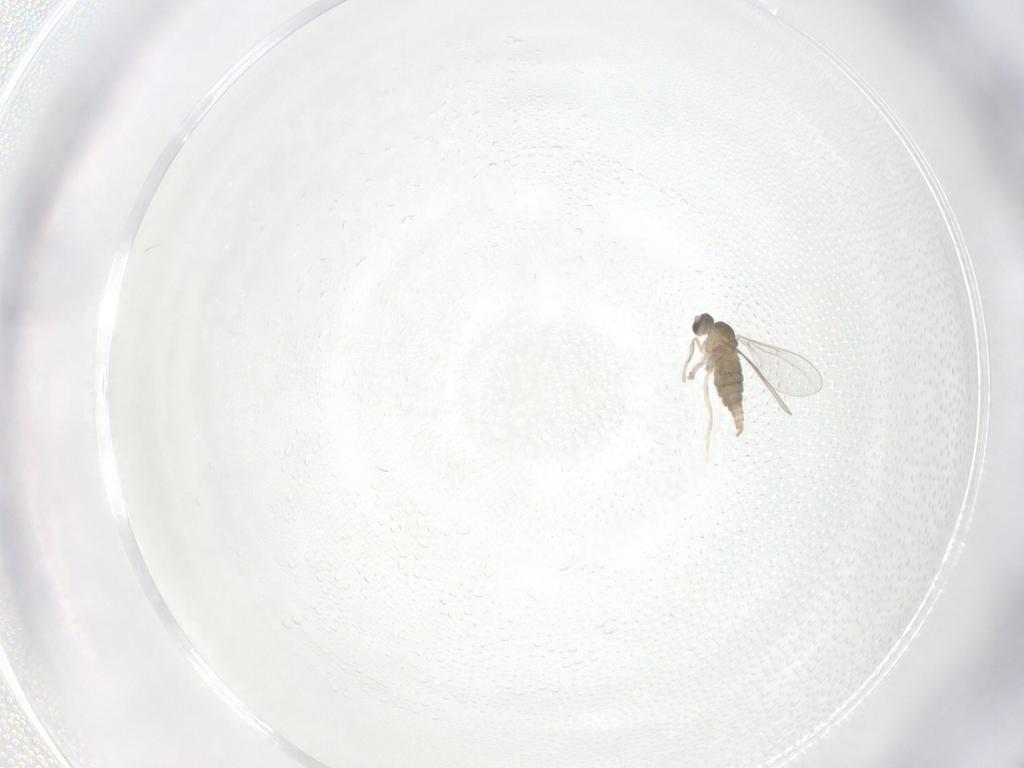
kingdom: Animalia
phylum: Arthropoda
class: Insecta
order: Diptera
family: Cecidomyiidae
